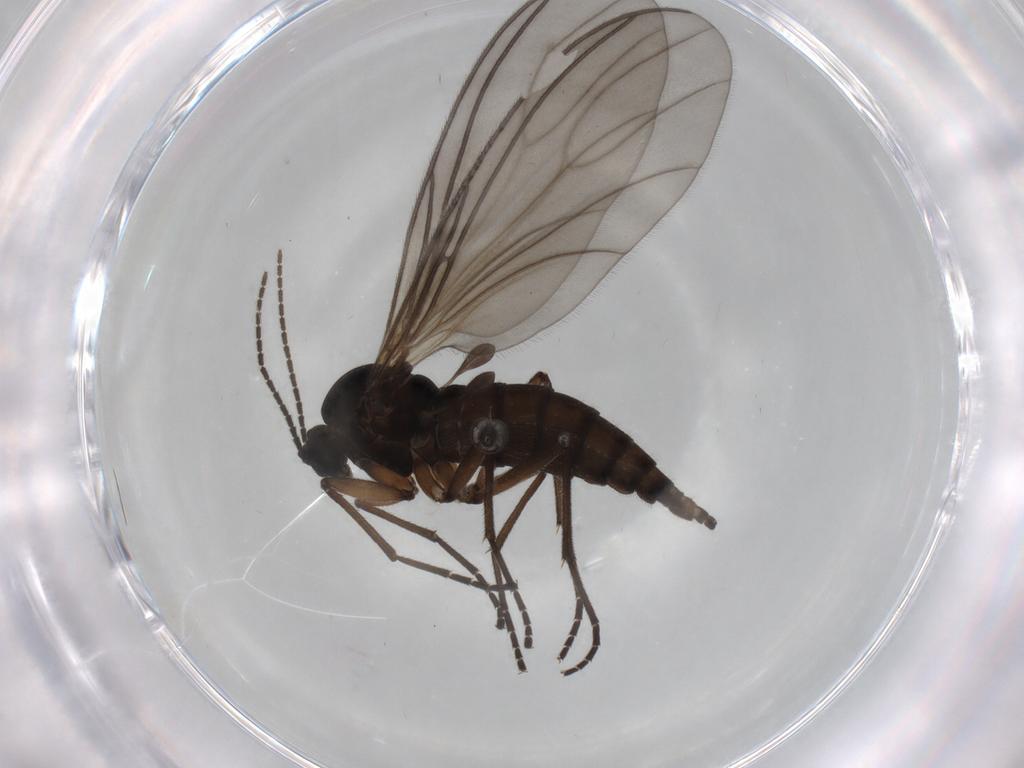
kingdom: Animalia
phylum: Arthropoda
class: Insecta
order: Diptera
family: Sciaridae
